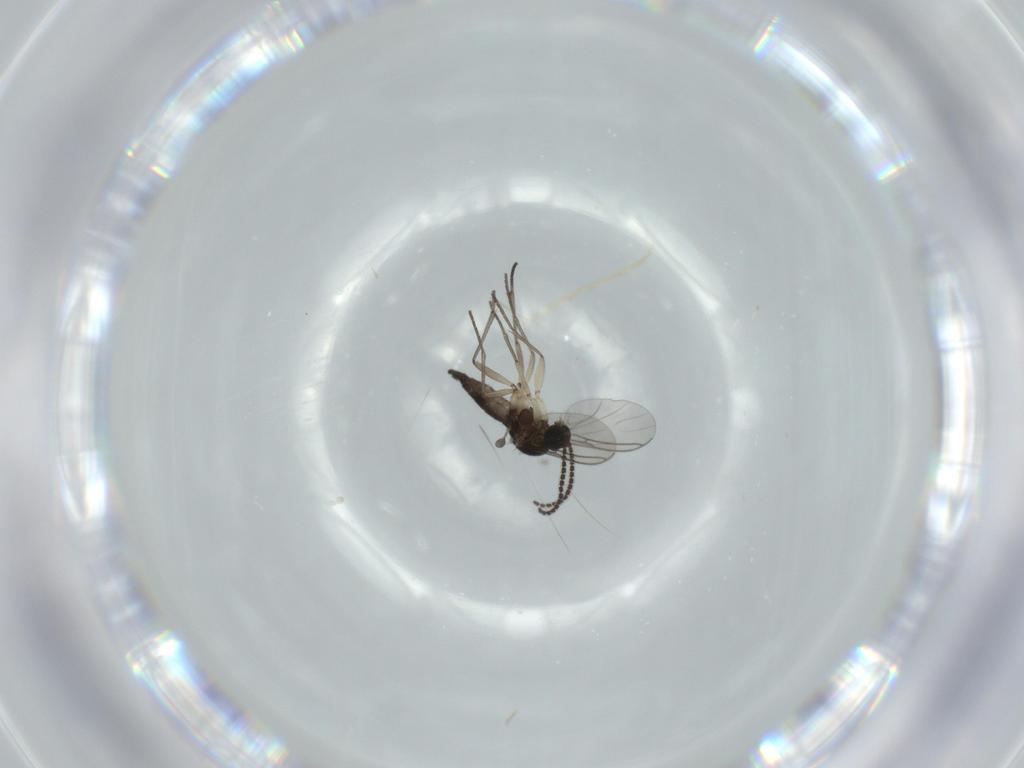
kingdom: Animalia
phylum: Arthropoda
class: Insecta
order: Diptera
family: Sciaridae
